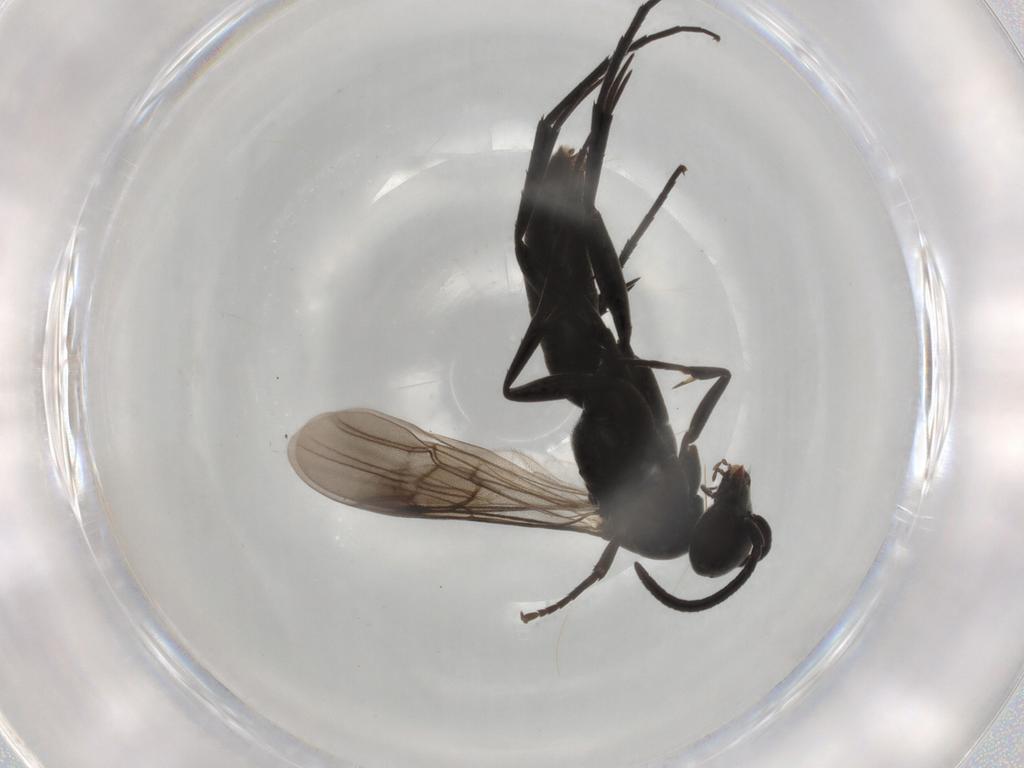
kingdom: Animalia
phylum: Arthropoda
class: Insecta
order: Hymenoptera
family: Pompilidae
